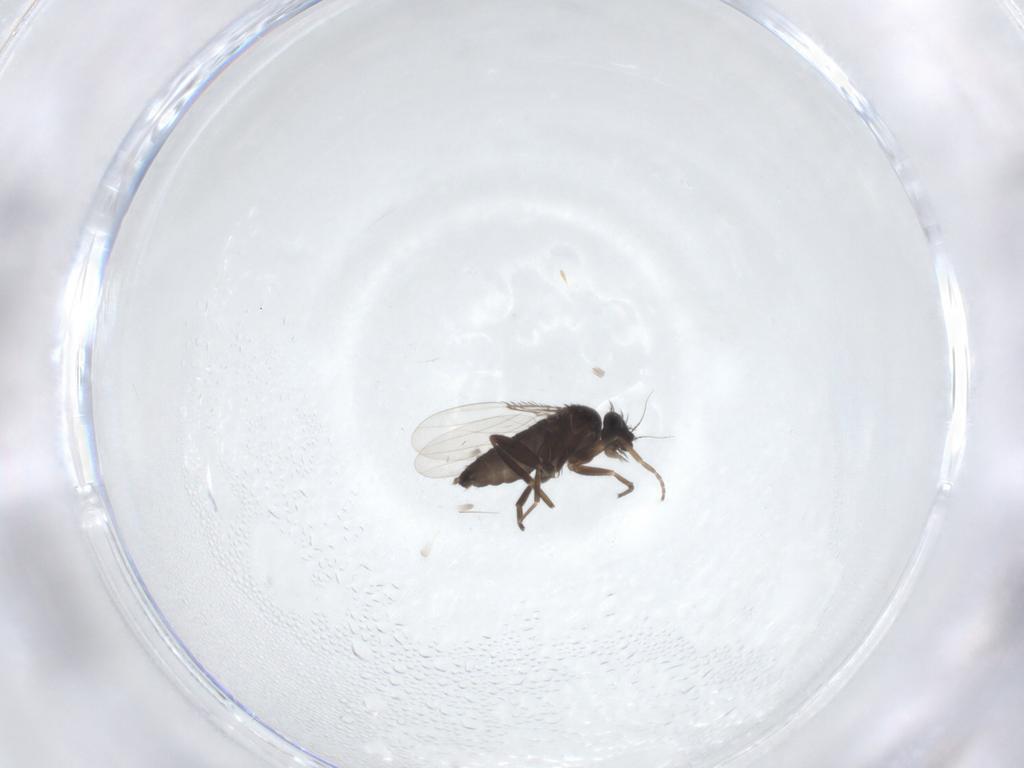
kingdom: Animalia
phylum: Arthropoda
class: Insecta
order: Diptera
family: Phoridae
